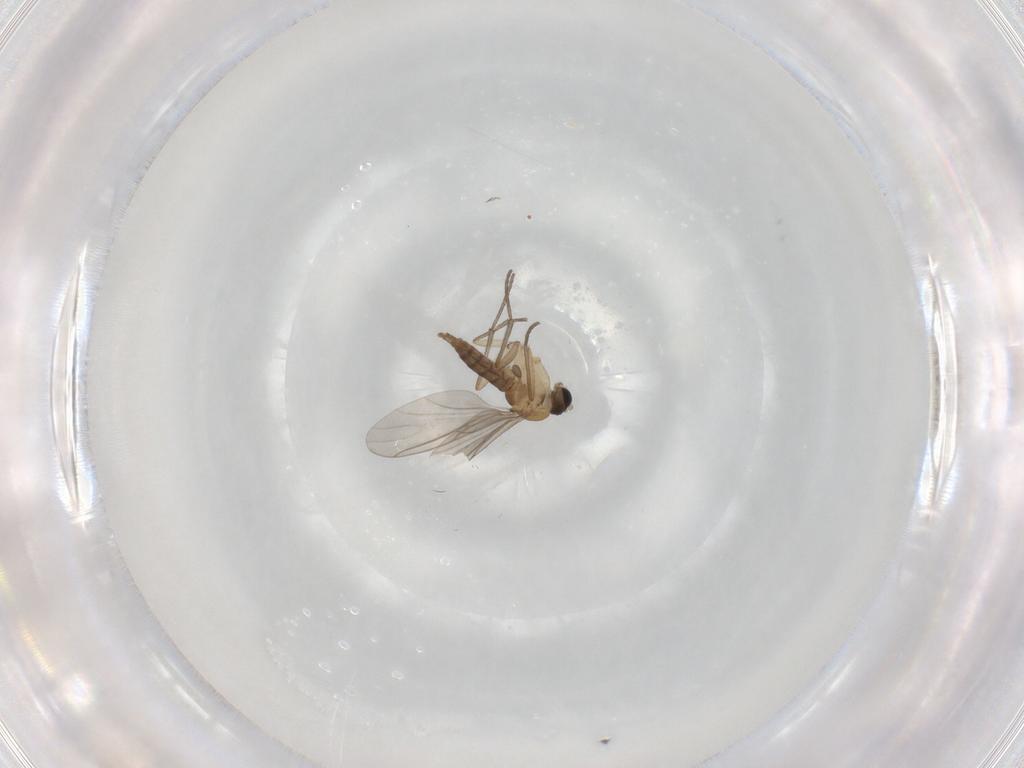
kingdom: Animalia
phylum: Arthropoda
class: Insecta
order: Diptera
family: Sciaridae
